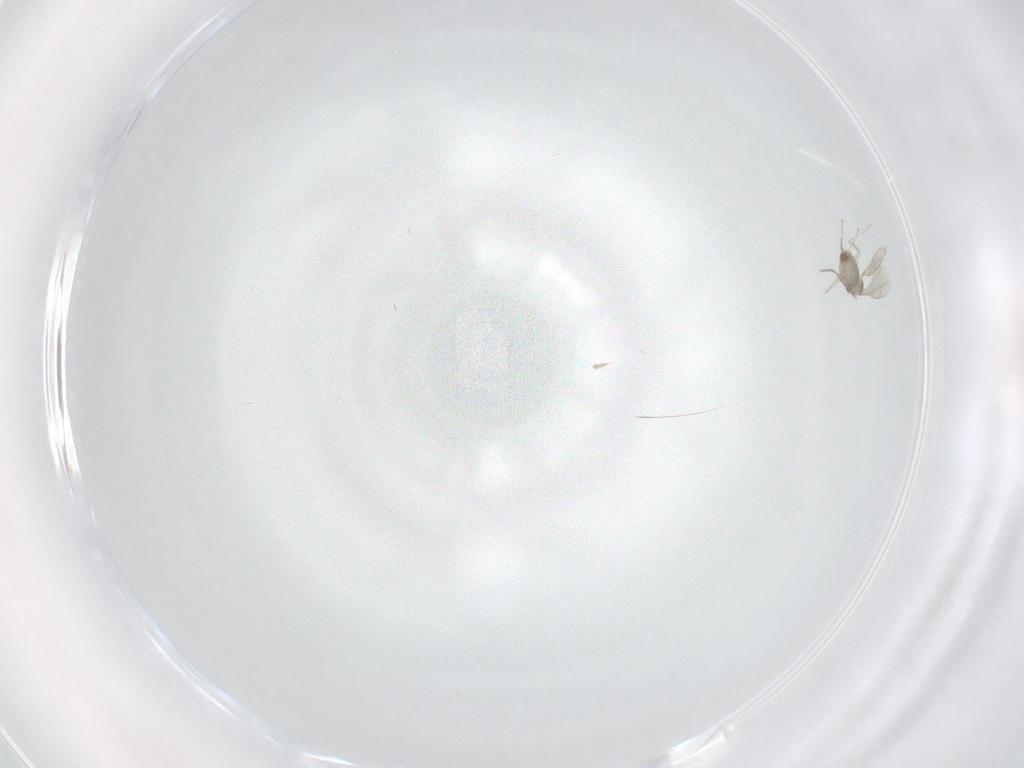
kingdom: Animalia
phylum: Arthropoda
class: Insecta
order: Diptera
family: Cecidomyiidae
